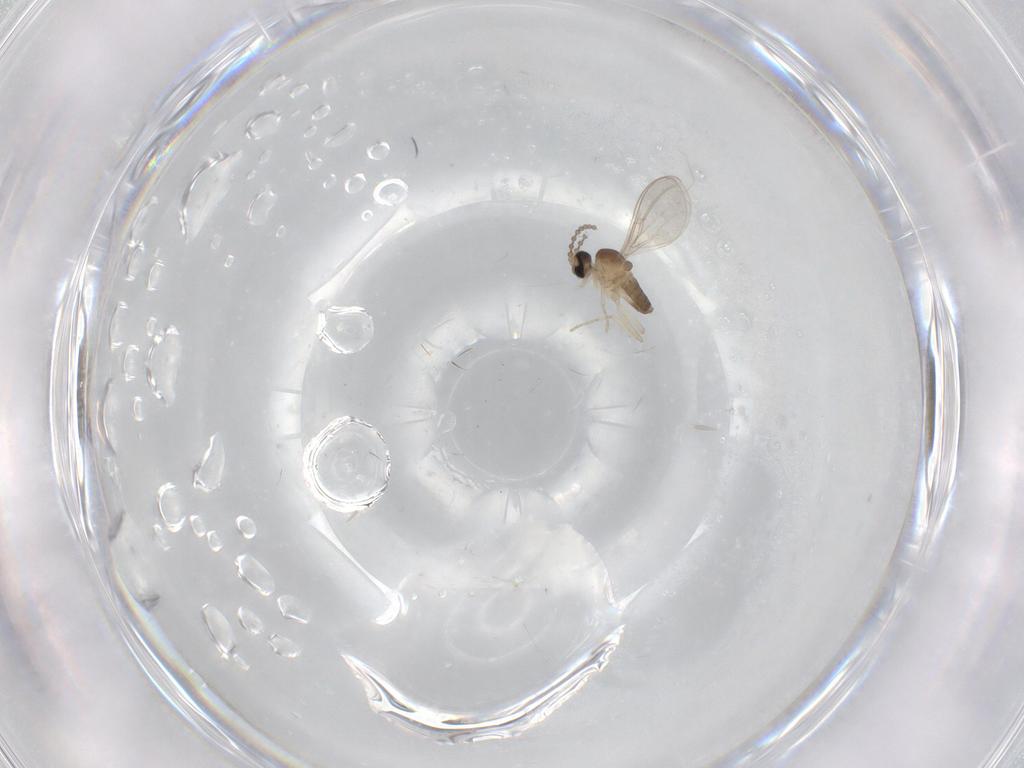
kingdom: Animalia
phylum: Arthropoda
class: Insecta
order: Diptera
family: Cecidomyiidae
